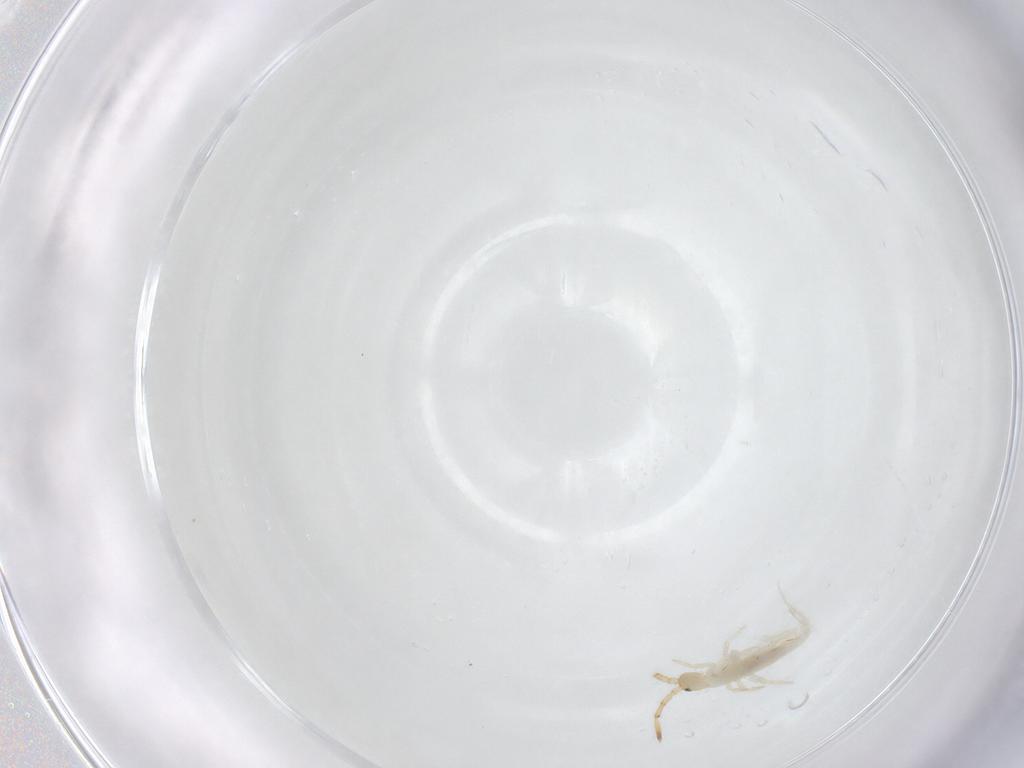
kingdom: Animalia
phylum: Arthropoda
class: Collembola
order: Entomobryomorpha
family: Entomobryidae
